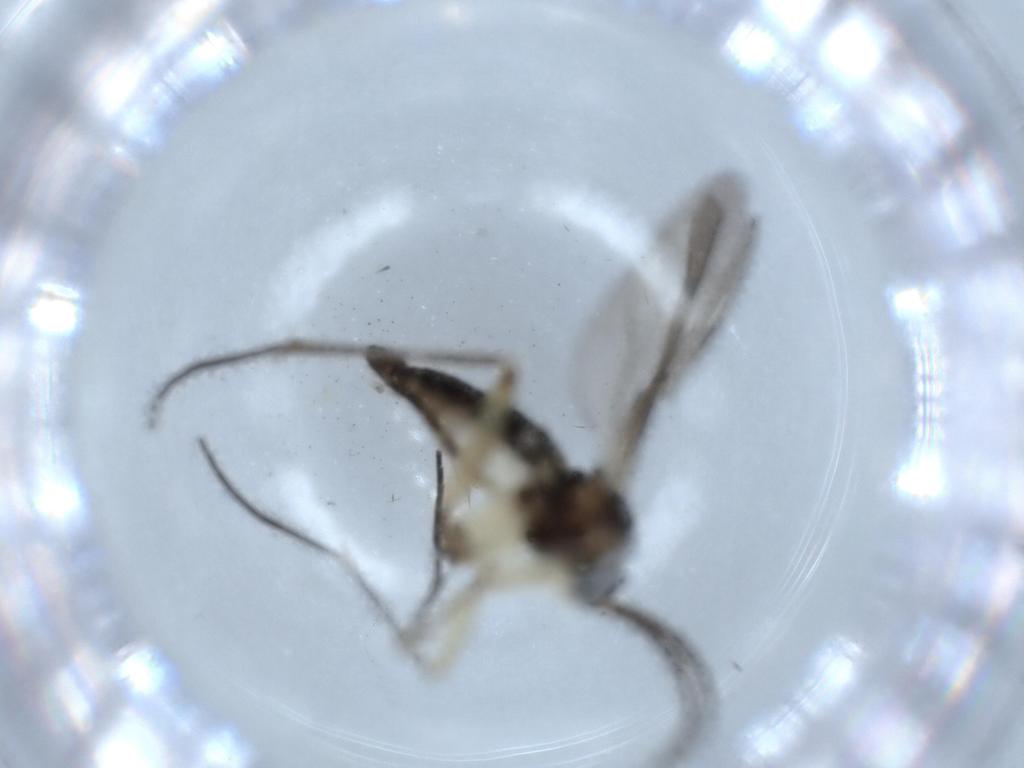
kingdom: Animalia
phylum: Arthropoda
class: Insecta
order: Diptera
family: Sciaridae
